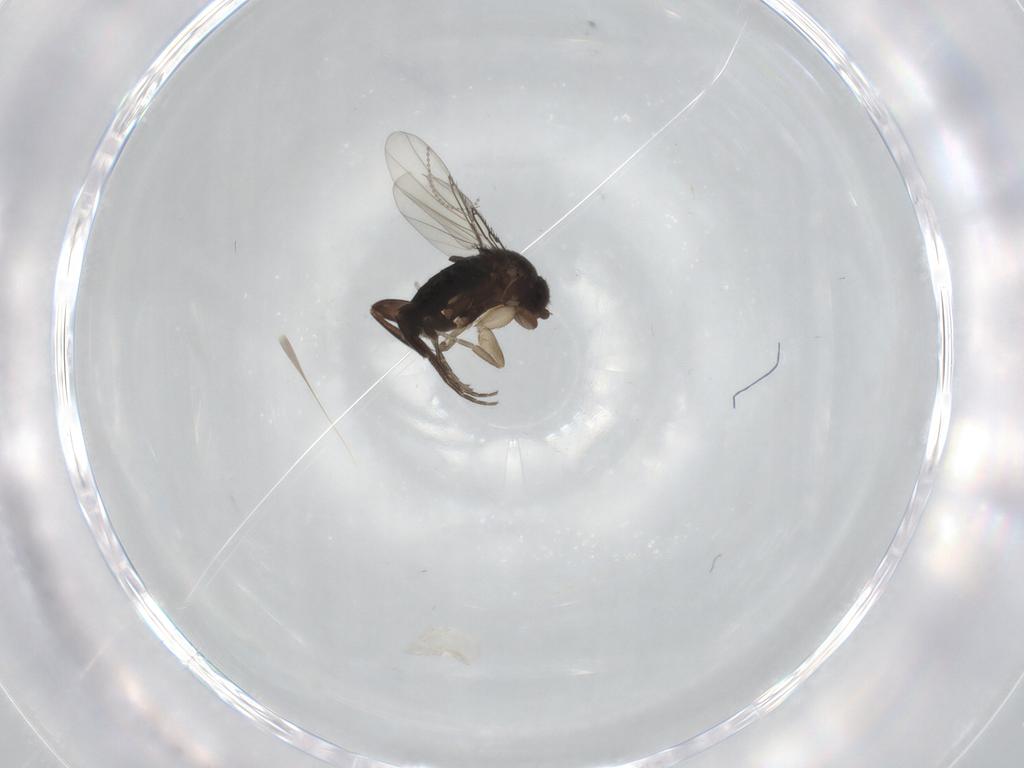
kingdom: Animalia
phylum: Arthropoda
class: Insecta
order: Diptera
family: Phoridae
